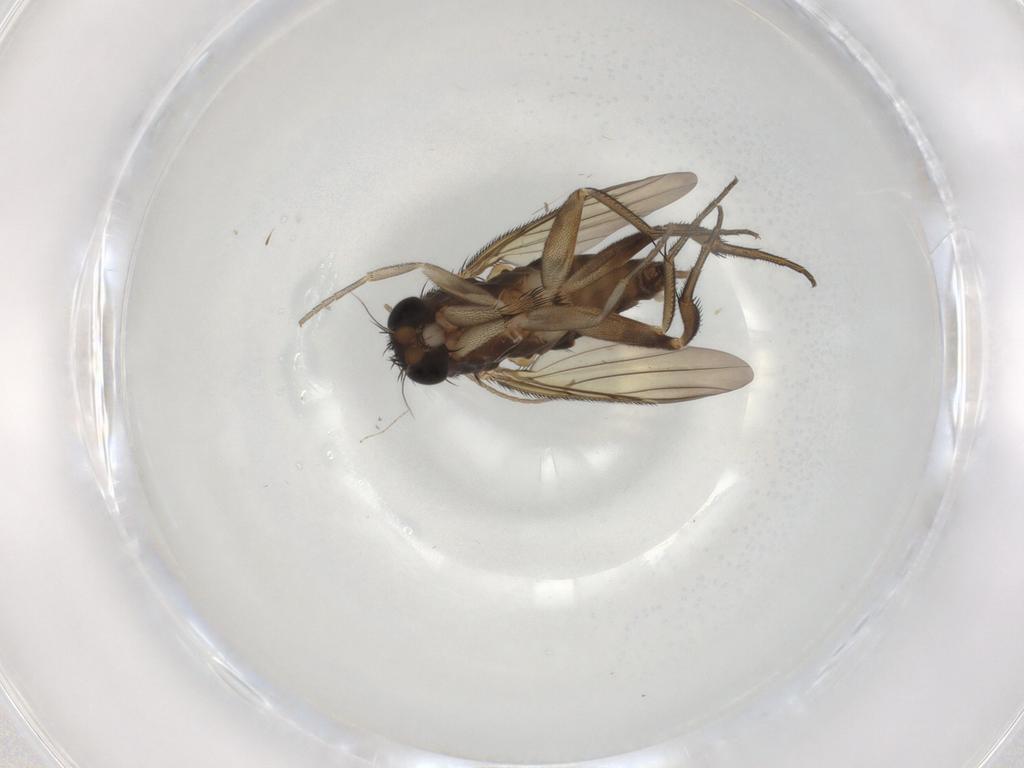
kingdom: Animalia
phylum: Arthropoda
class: Insecta
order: Diptera
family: Phoridae
